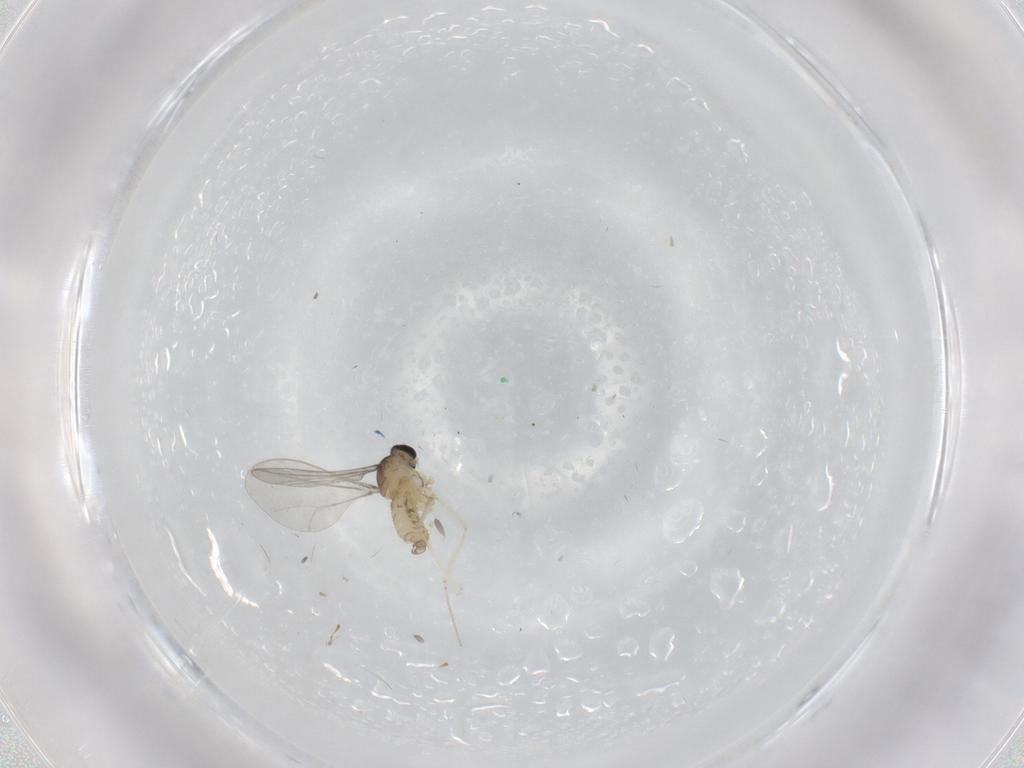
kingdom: Animalia
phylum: Arthropoda
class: Insecta
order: Diptera
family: Cecidomyiidae
